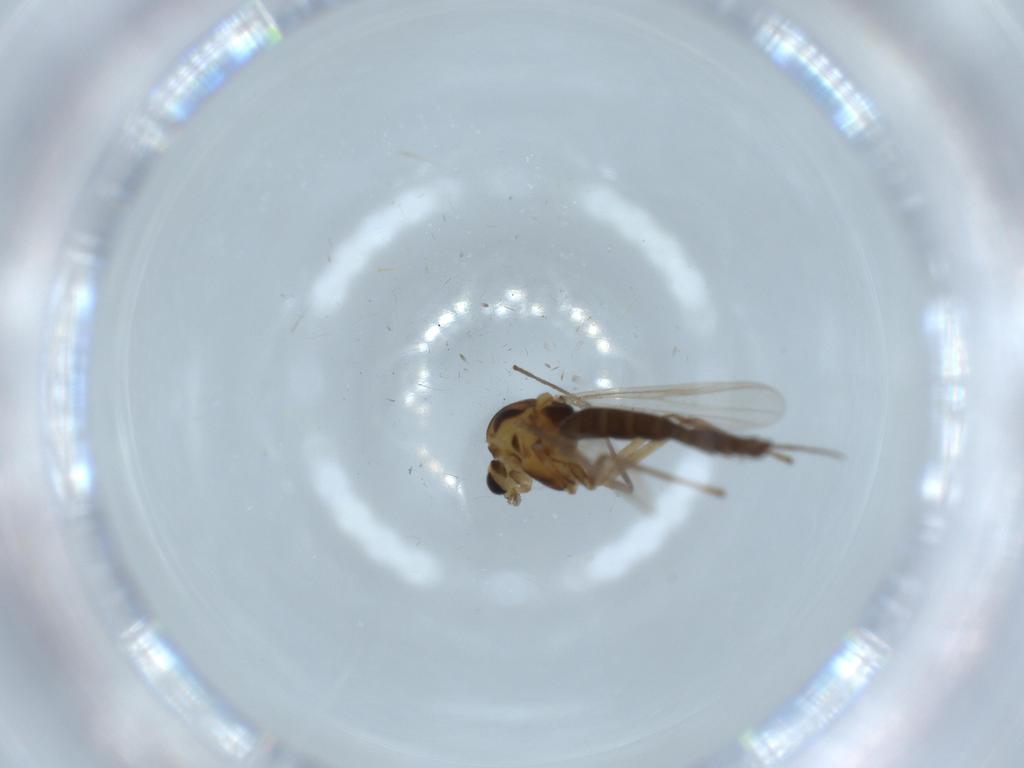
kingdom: Animalia
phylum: Arthropoda
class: Insecta
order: Diptera
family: Chironomidae
